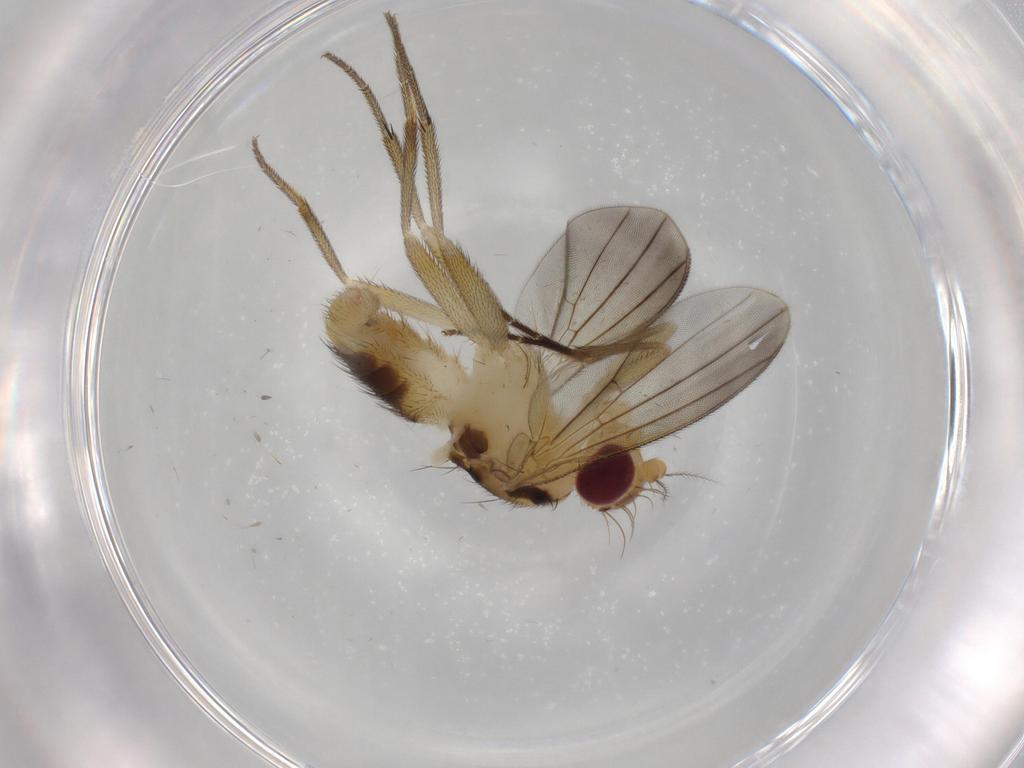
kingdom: Animalia
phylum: Arthropoda
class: Insecta
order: Diptera
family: Clusiidae
